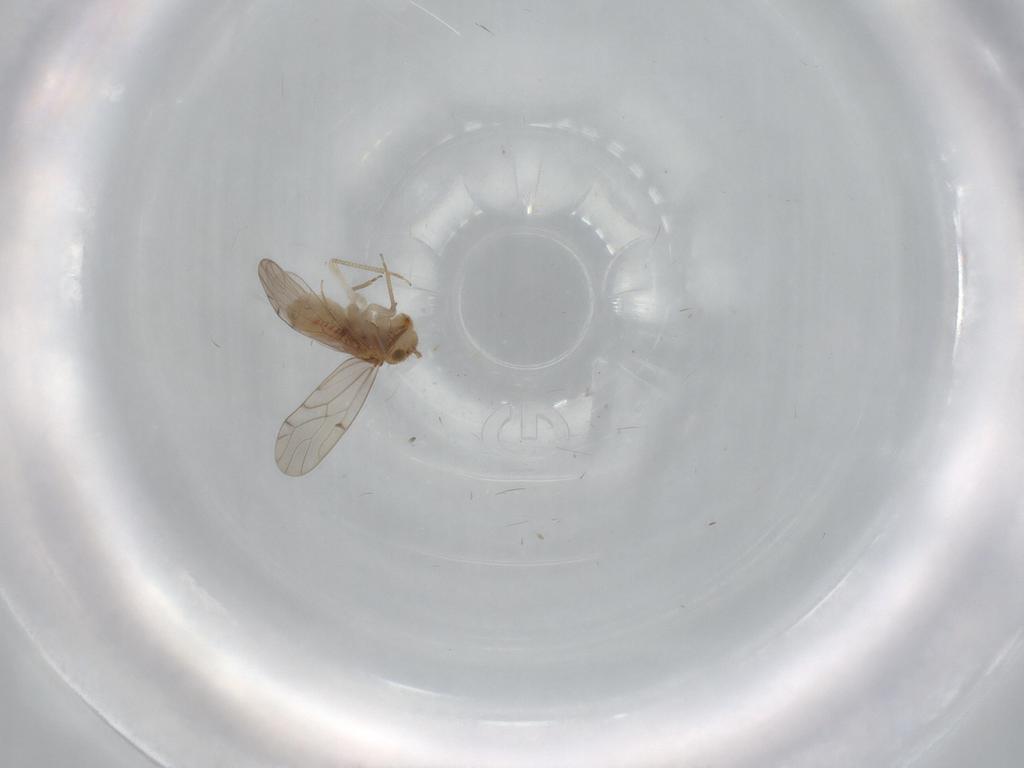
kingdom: Animalia
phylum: Arthropoda
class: Insecta
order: Psocodea
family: Ectopsocidae
